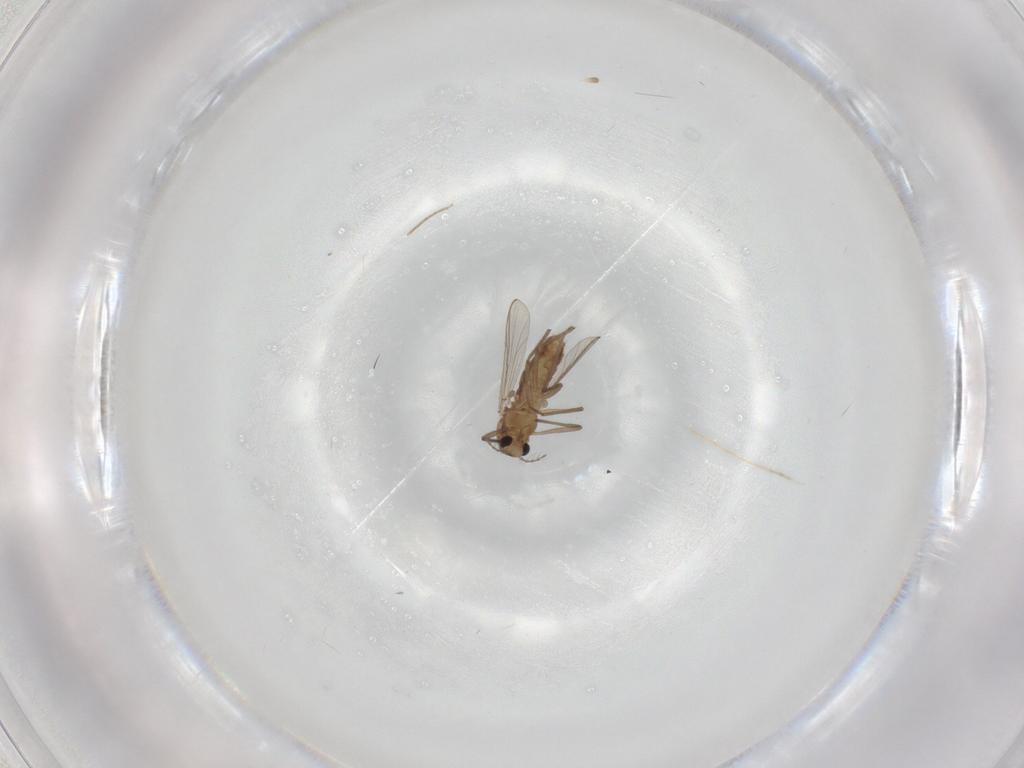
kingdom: Animalia
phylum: Arthropoda
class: Insecta
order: Diptera
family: Chironomidae
